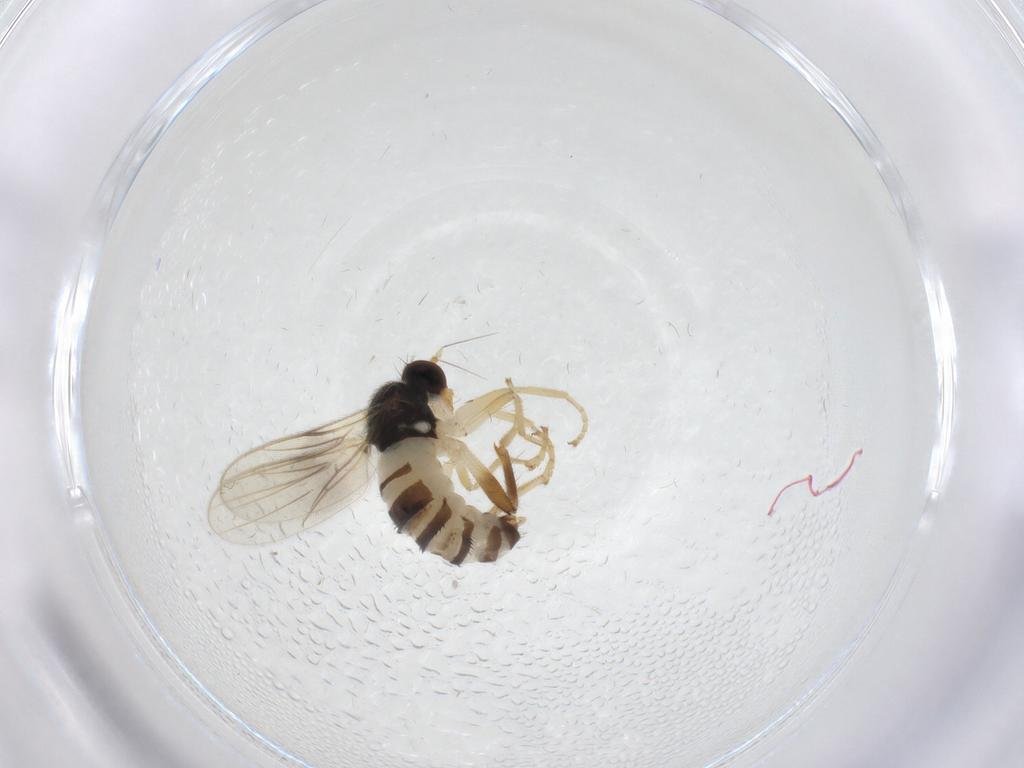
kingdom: Animalia
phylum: Arthropoda
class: Insecta
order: Diptera
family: Hybotidae
